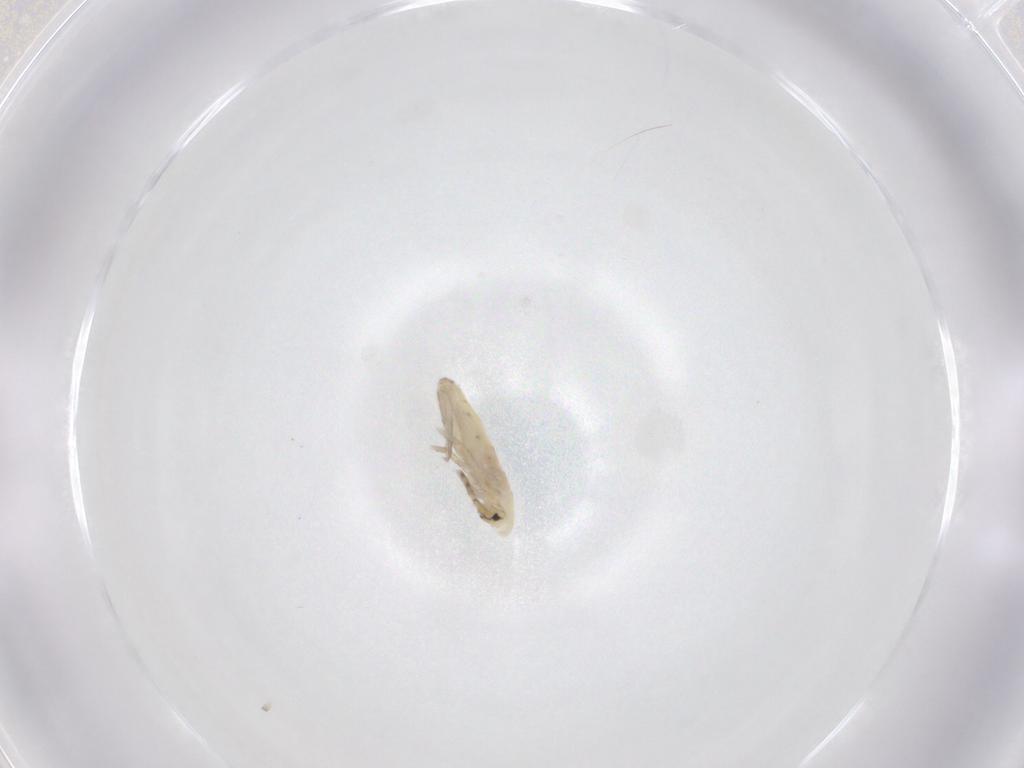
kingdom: Animalia
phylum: Arthropoda
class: Collembola
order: Entomobryomorpha
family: Entomobryidae
